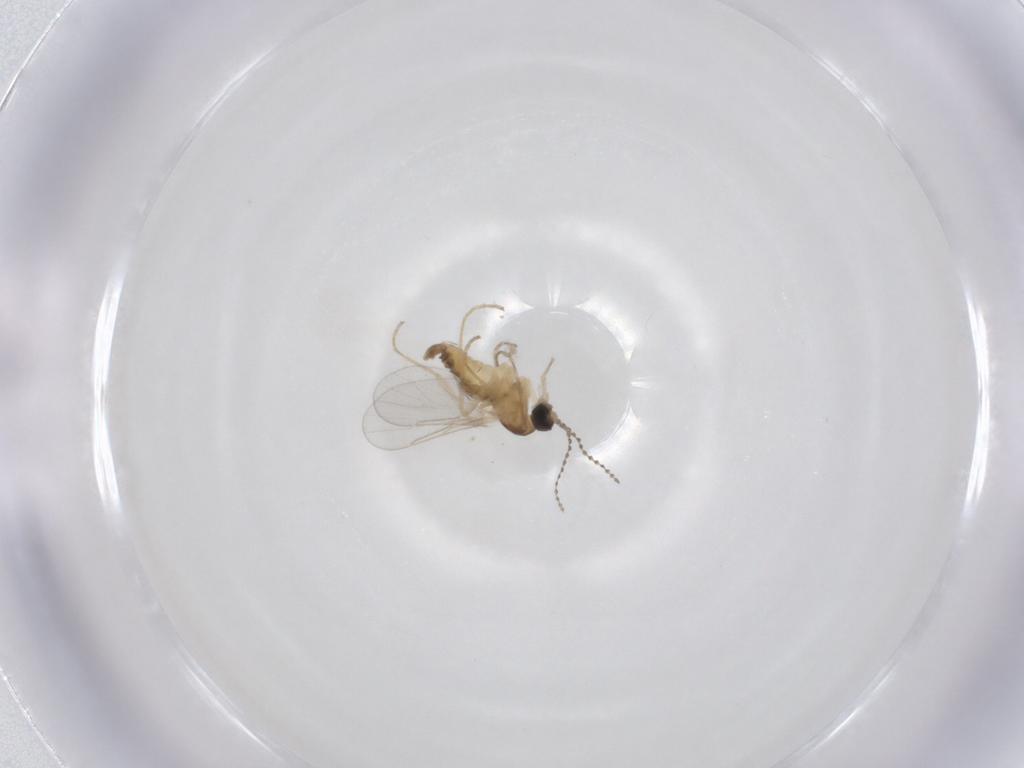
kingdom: Animalia
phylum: Arthropoda
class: Insecta
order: Diptera
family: Cecidomyiidae
